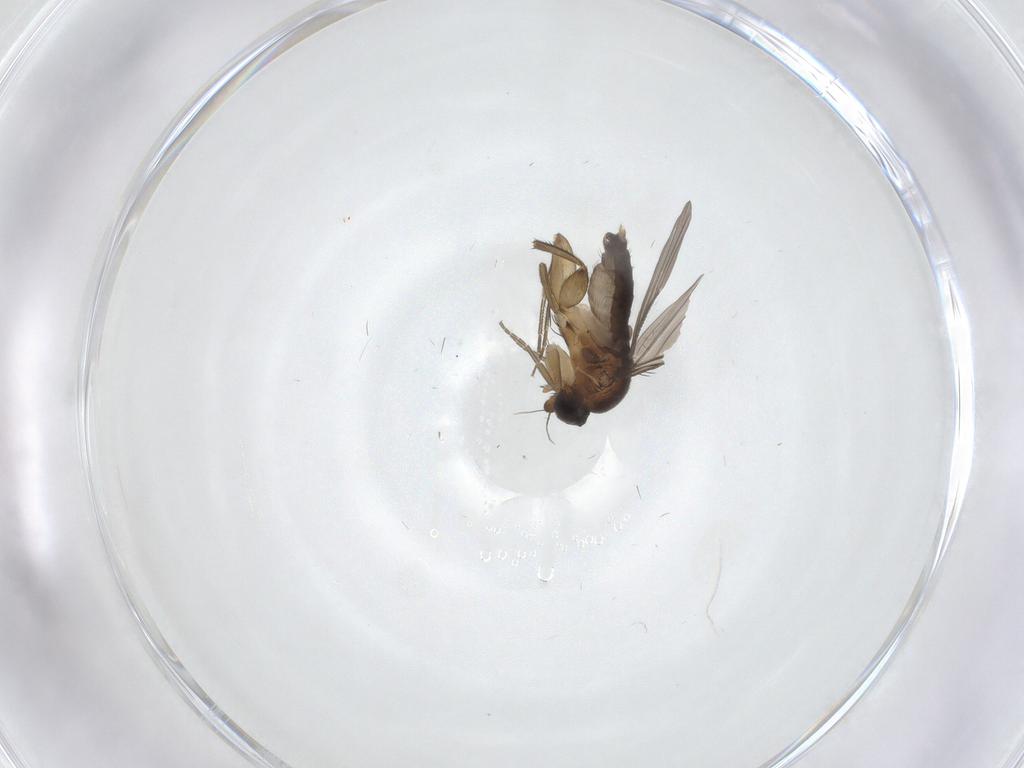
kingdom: Animalia
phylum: Arthropoda
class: Insecta
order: Diptera
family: Phoridae
